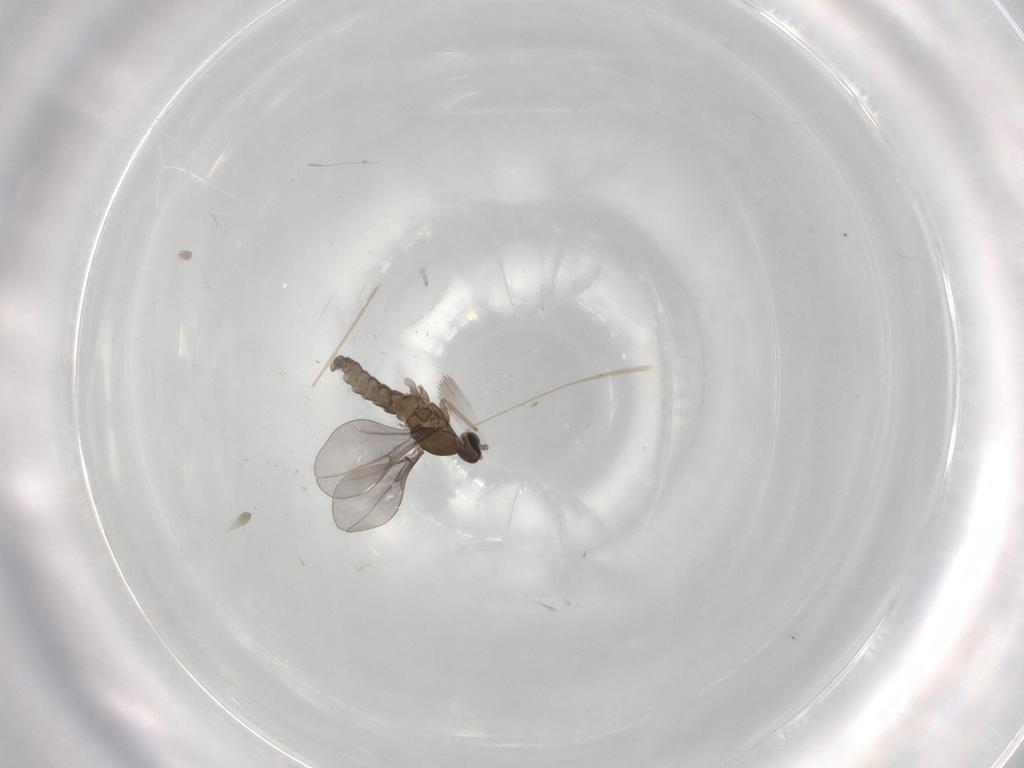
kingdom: Animalia
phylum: Arthropoda
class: Insecta
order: Diptera
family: Cecidomyiidae
